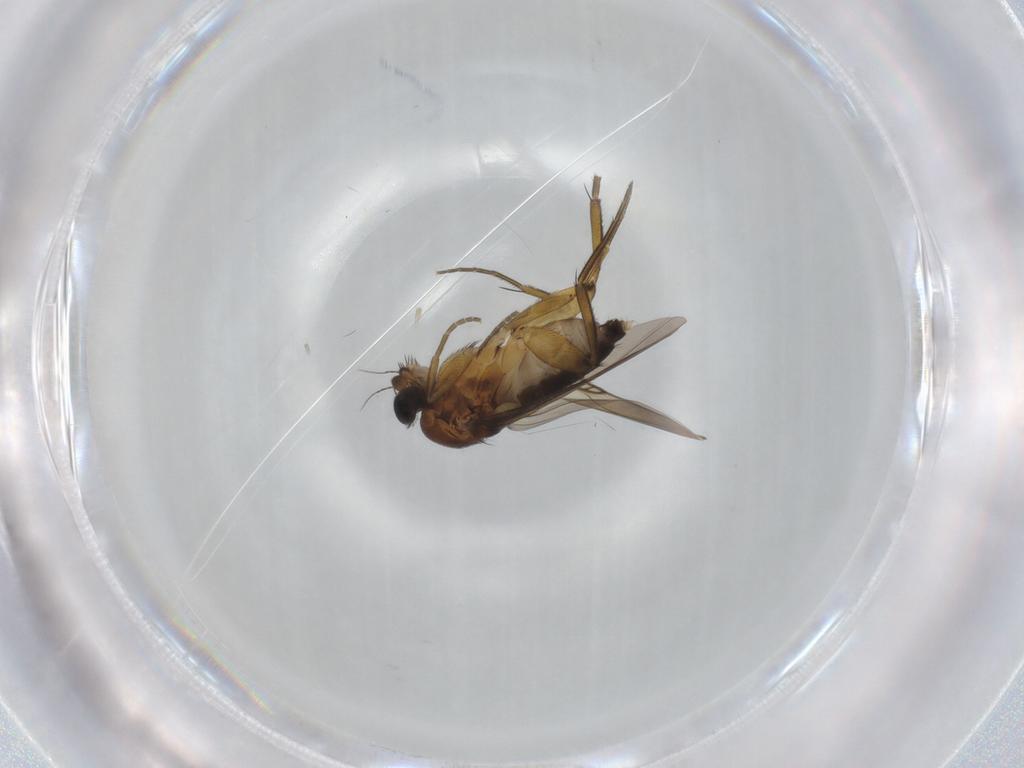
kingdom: Animalia
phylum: Arthropoda
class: Insecta
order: Diptera
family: Phoridae
